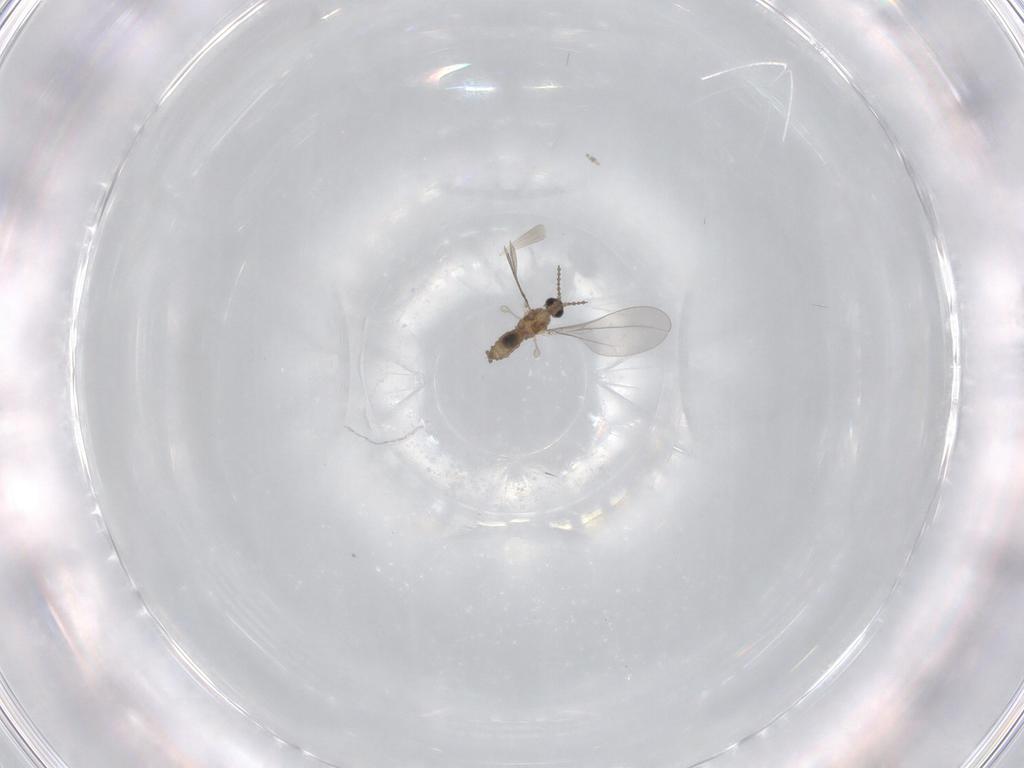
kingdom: Animalia
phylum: Arthropoda
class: Insecta
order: Diptera
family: Cecidomyiidae
